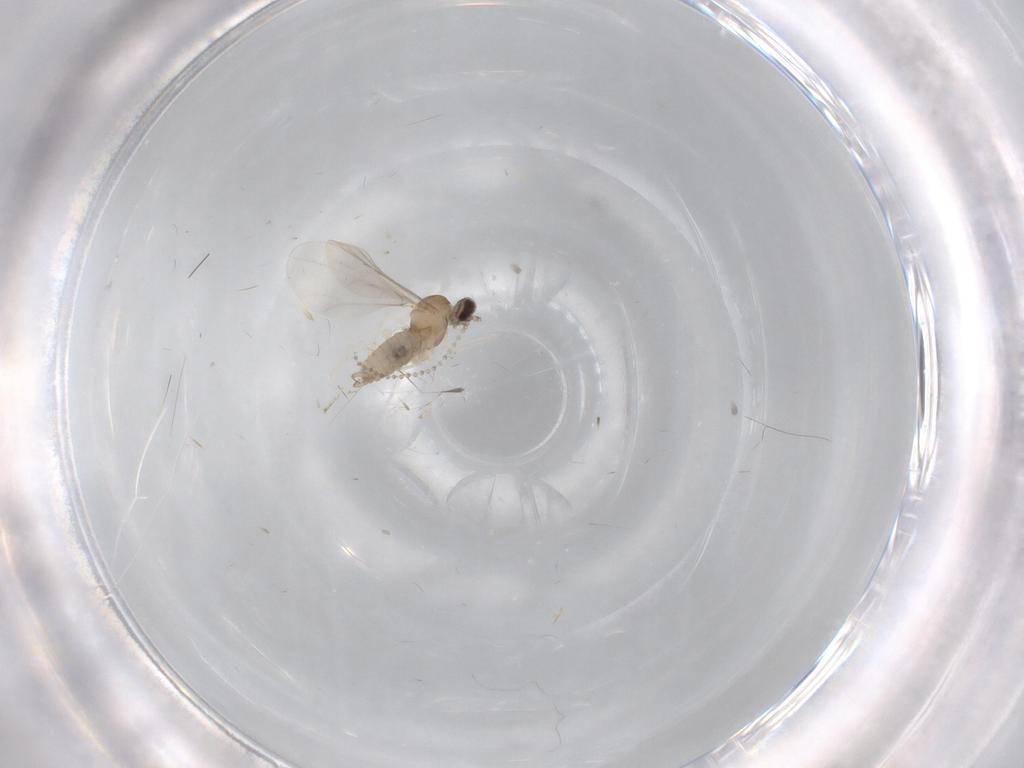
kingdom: Animalia
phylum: Arthropoda
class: Insecta
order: Diptera
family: Cecidomyiidae
